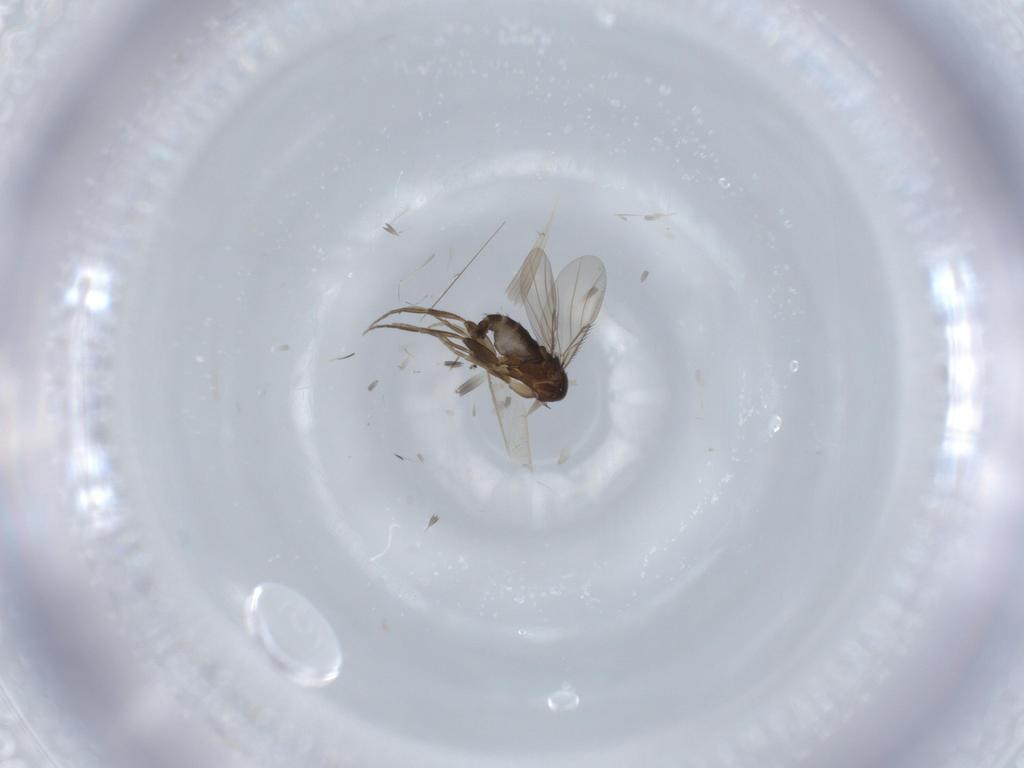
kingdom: Animalia
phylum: Arthropoda
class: Insecta
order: Diptera
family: Phoridae
